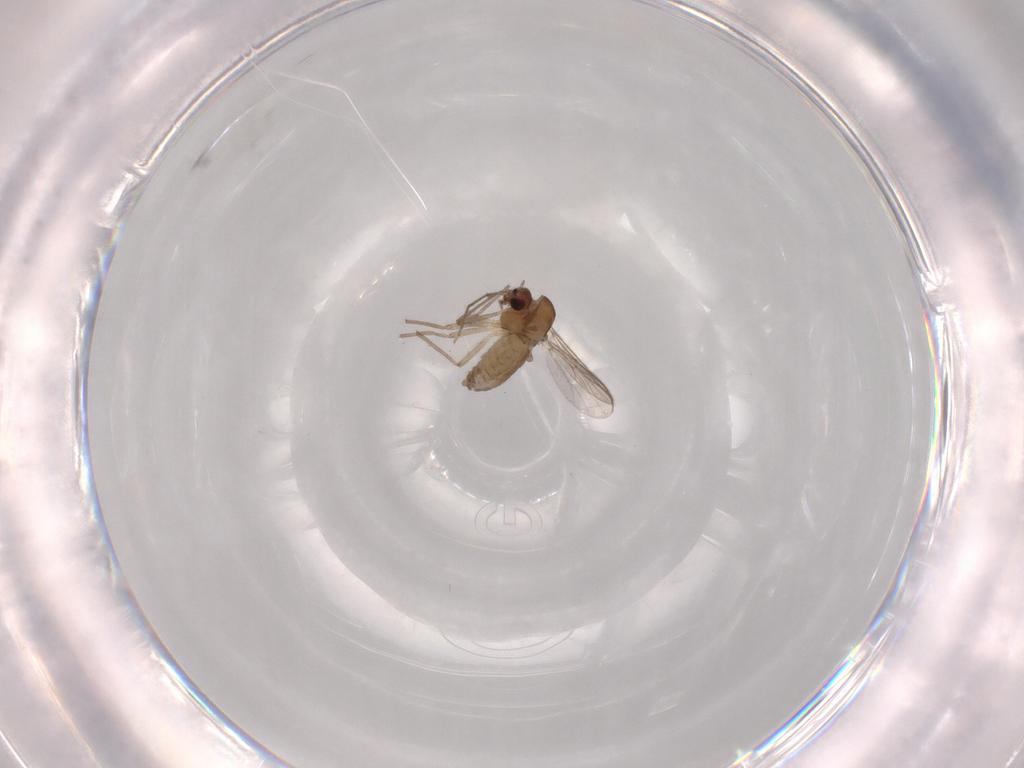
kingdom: Animalia
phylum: Arthropoda
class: Insecta
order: Diptera
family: Chironomidae
